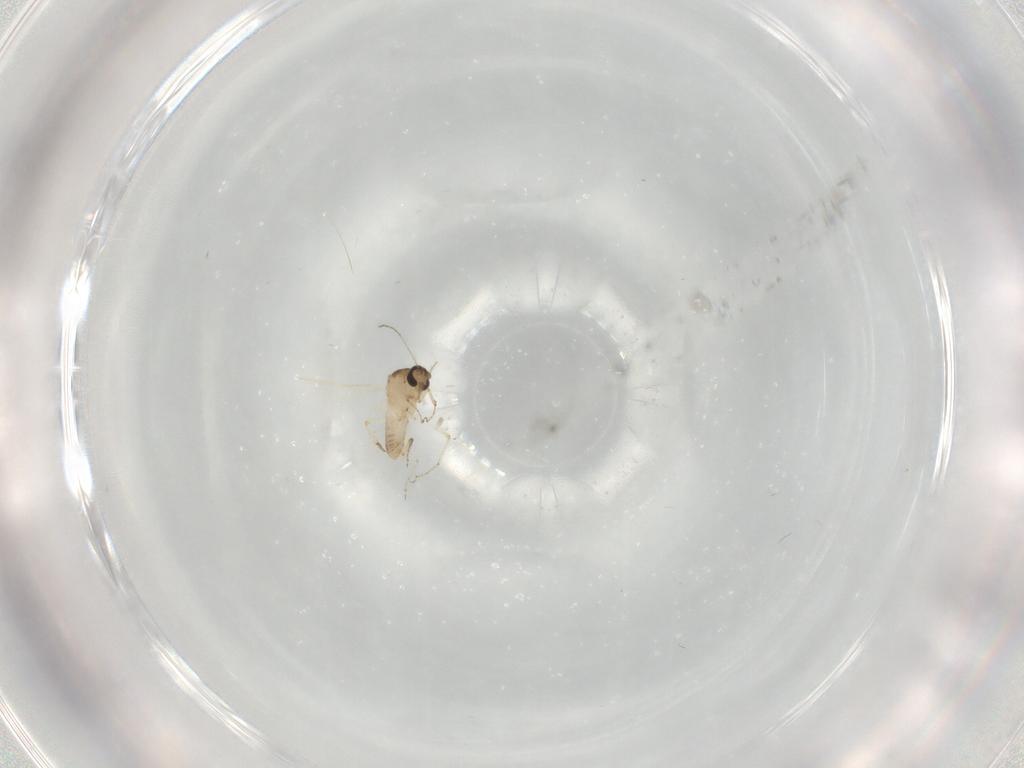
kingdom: Animalia
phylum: Arthropoda
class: Insecta
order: Diptera
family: Ceratopogonidae
